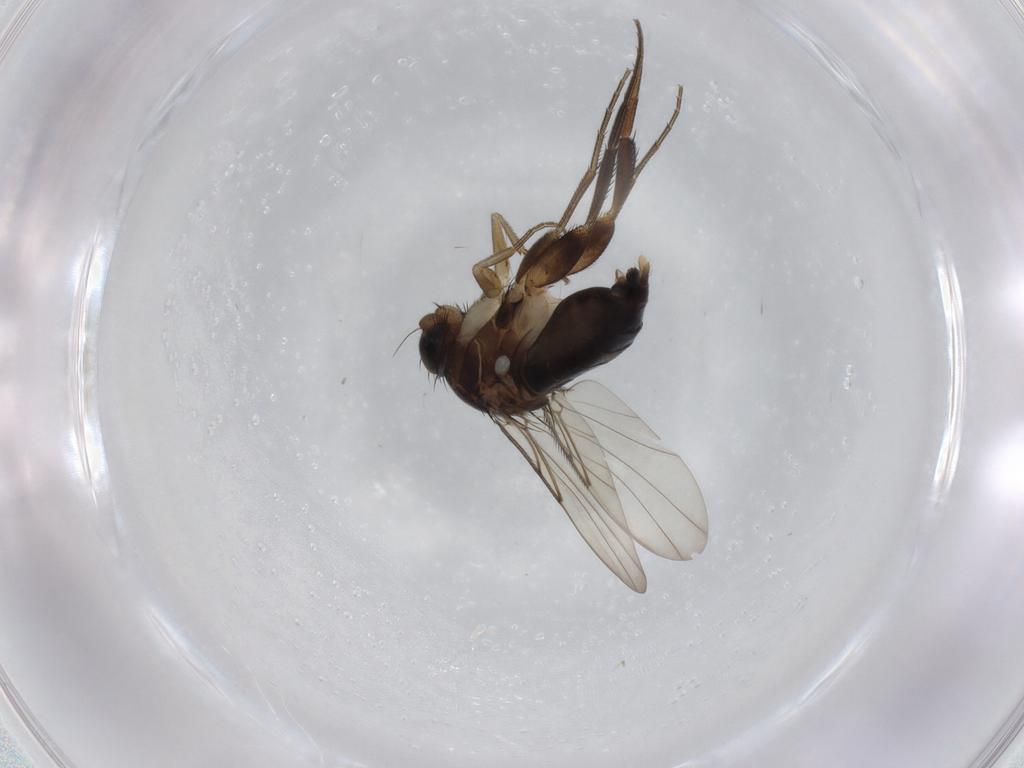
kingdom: Animalia
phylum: Arthropoda
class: Insecta
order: Diptera
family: Phoridae
